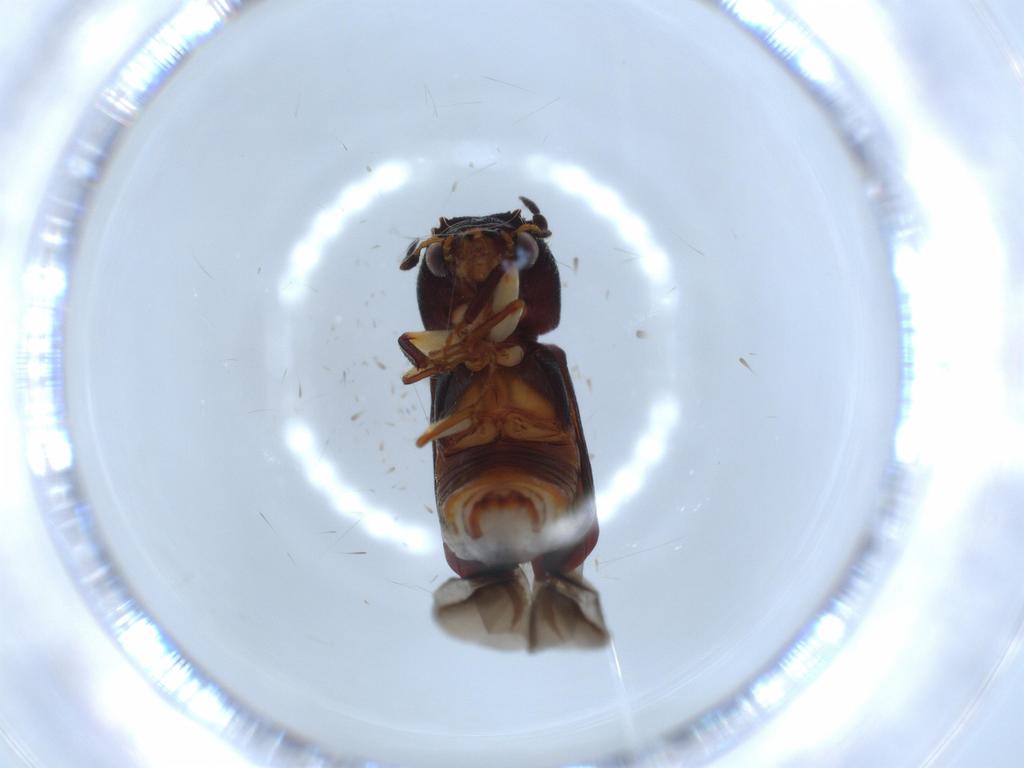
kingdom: Animalia
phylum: Arthropoda
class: Insecta
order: Coleoptera
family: Bostrichidae
